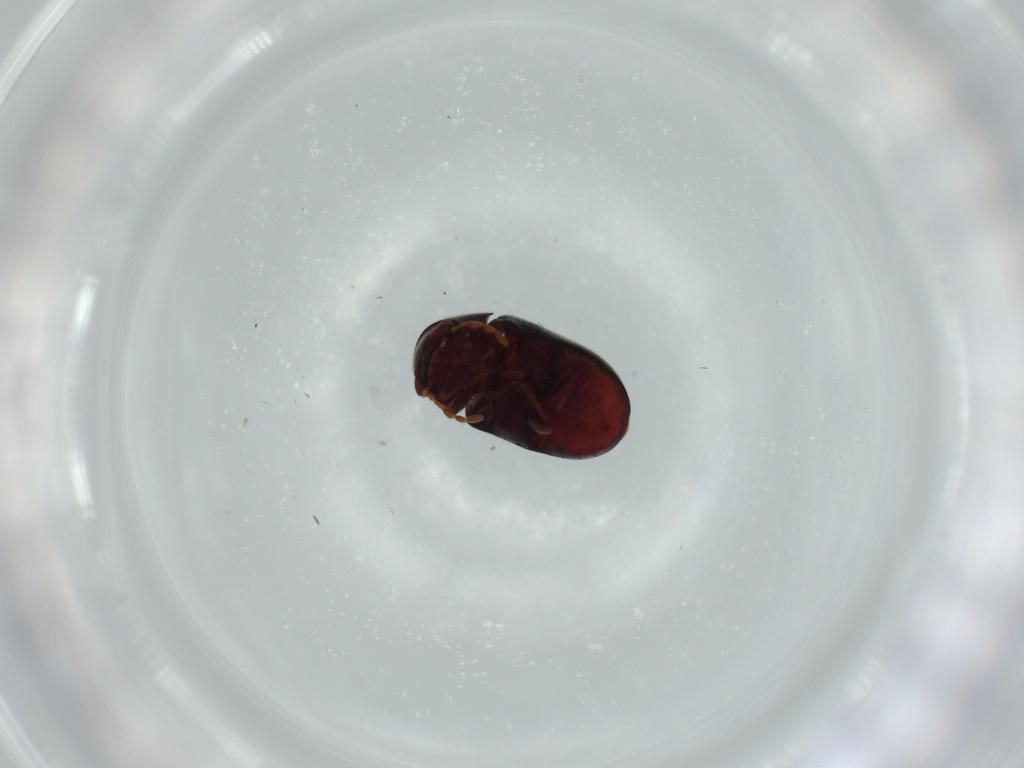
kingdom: Animalia
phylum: Arthropoda
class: Insecta
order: Coleoptera
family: Ptinidae
